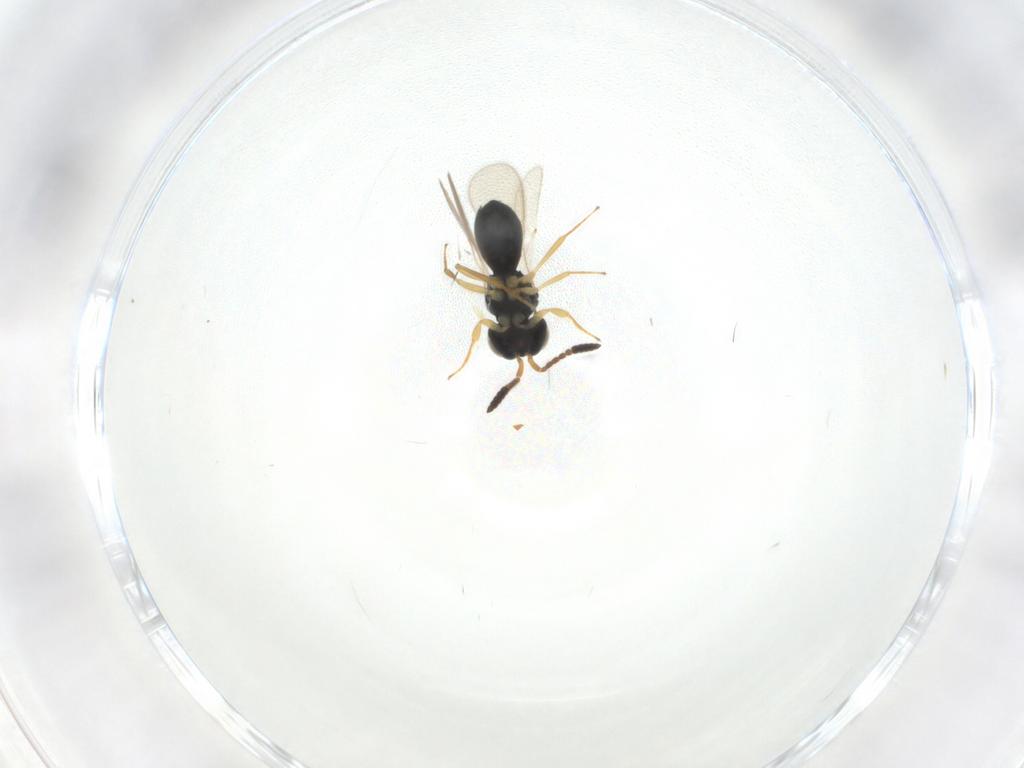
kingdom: Animalia
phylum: Arthropoda
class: Insecta
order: Hymenoptera
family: Scelionidae
